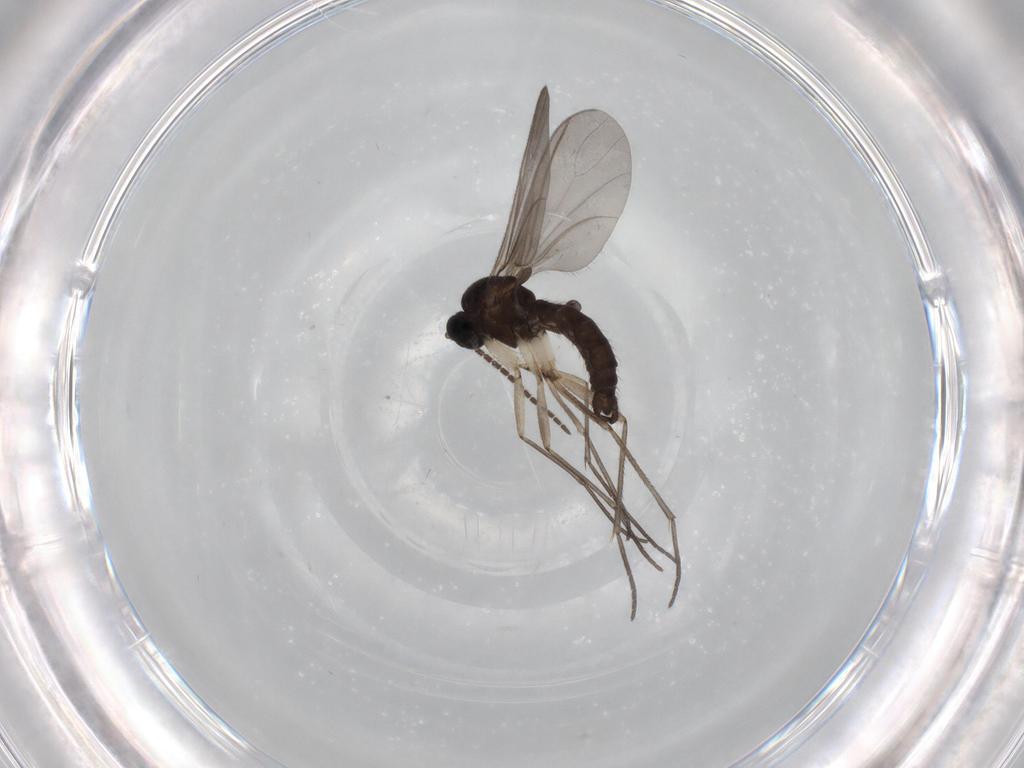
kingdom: Animalia
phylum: Arthropoda
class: Insecta
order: Diptera
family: Sciaridae
